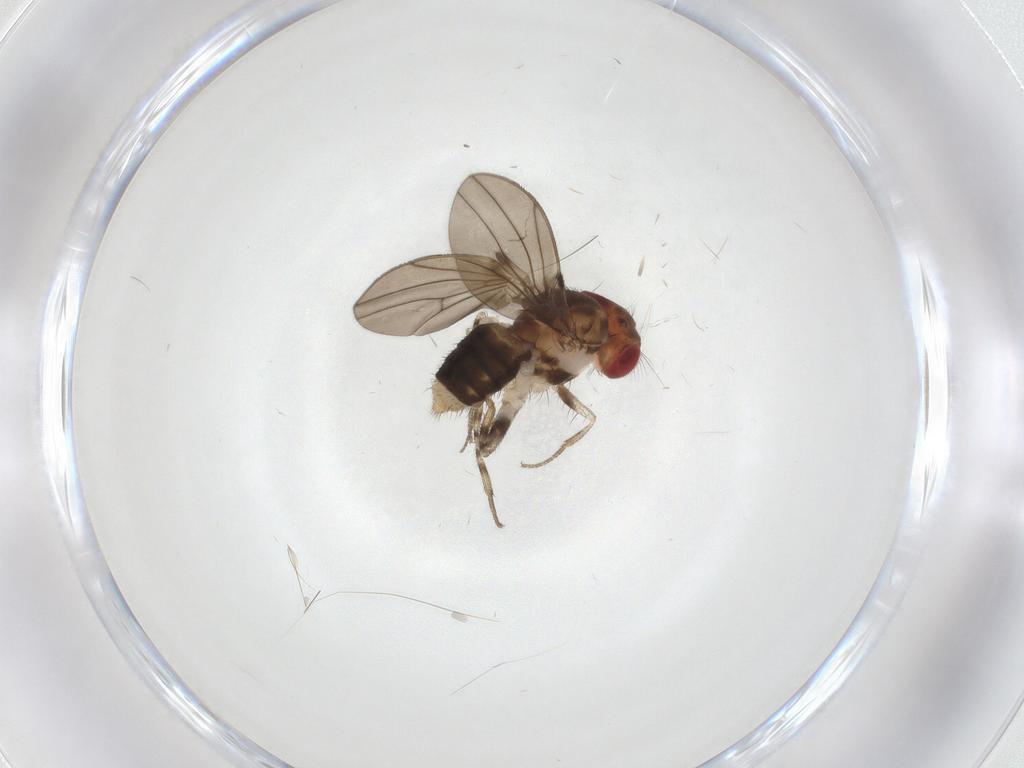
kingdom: Animalia
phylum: Arthropoda
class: Insecta
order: Diptera
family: Drosophilidae
